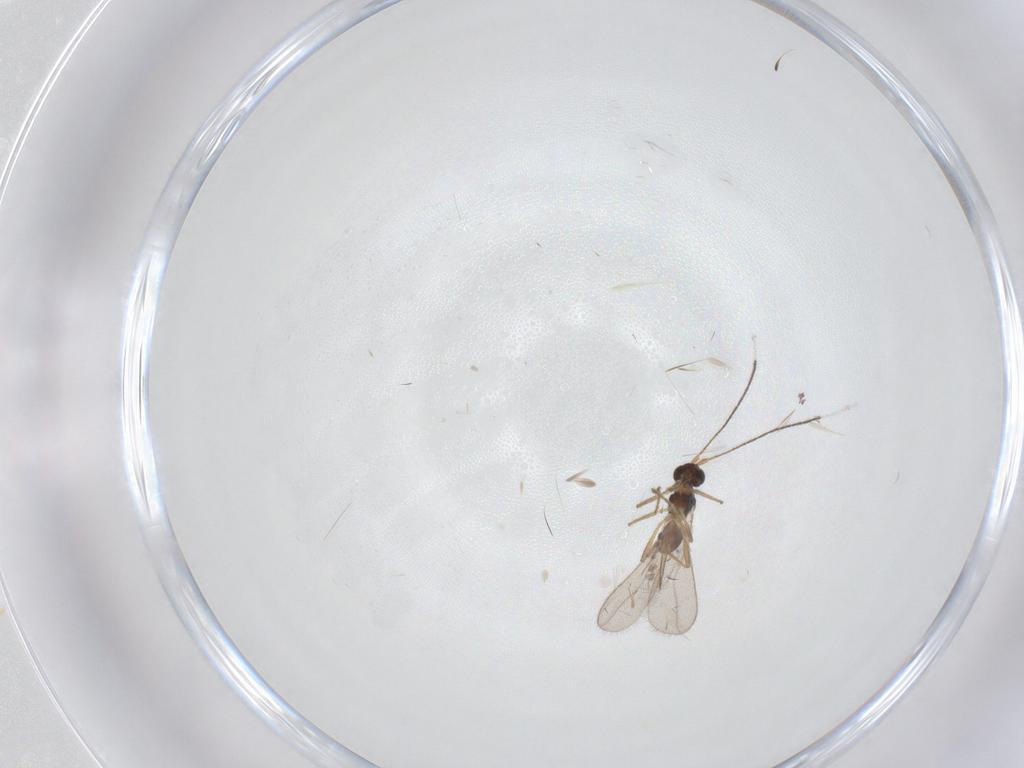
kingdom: Animalia
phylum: Arthropoda
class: Insecta
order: Hymenoptera
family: Braconidae
